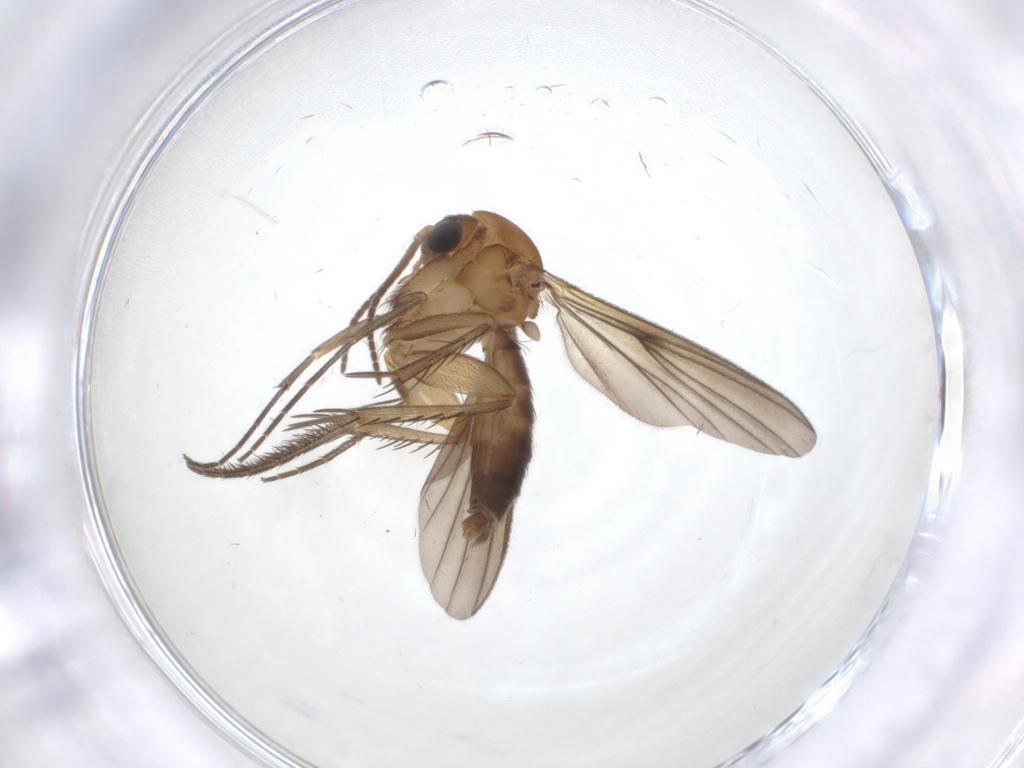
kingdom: Animalia
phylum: Arthropoda
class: Insecta
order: Diptera
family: Mycetophilidae
